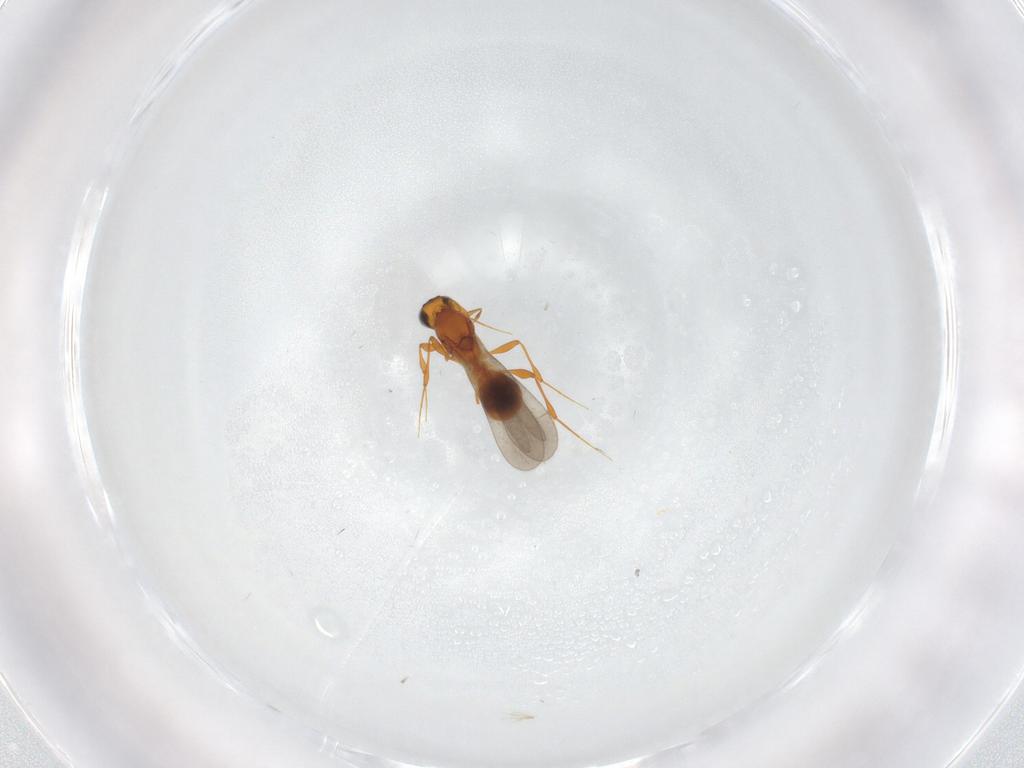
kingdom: Animalia
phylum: Arthropoda
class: Insecta
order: Hymenoptera
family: Platygastridae
